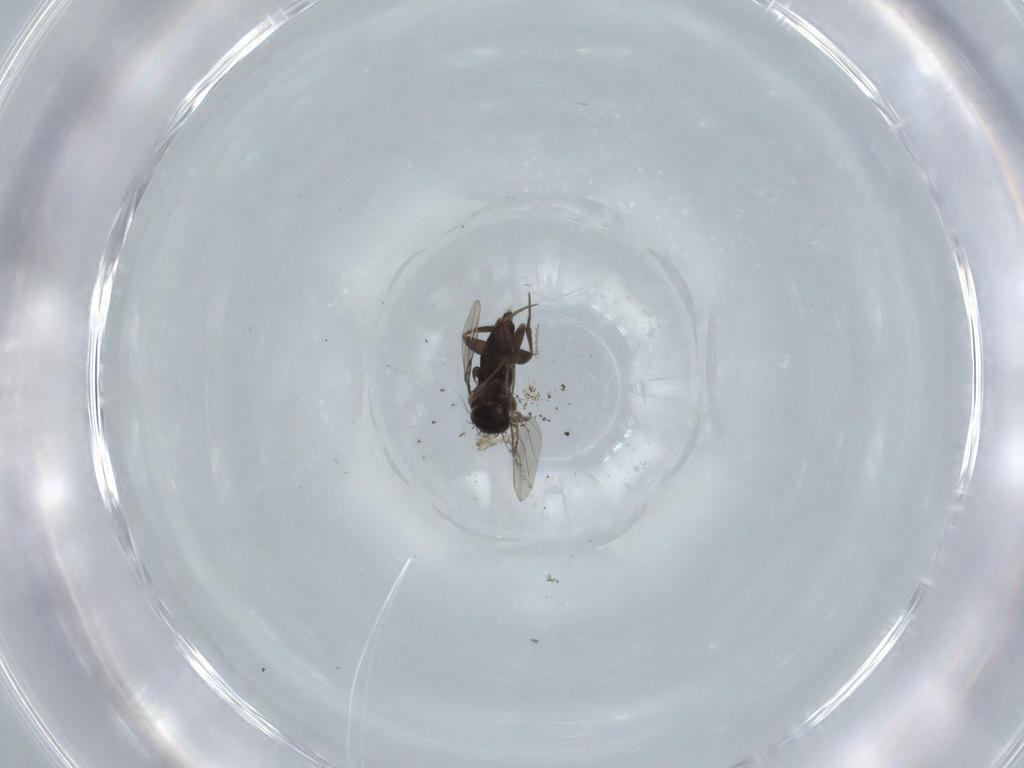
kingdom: Animalia
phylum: Arthropoda
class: Insecta
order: Diptera
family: Phoridae
